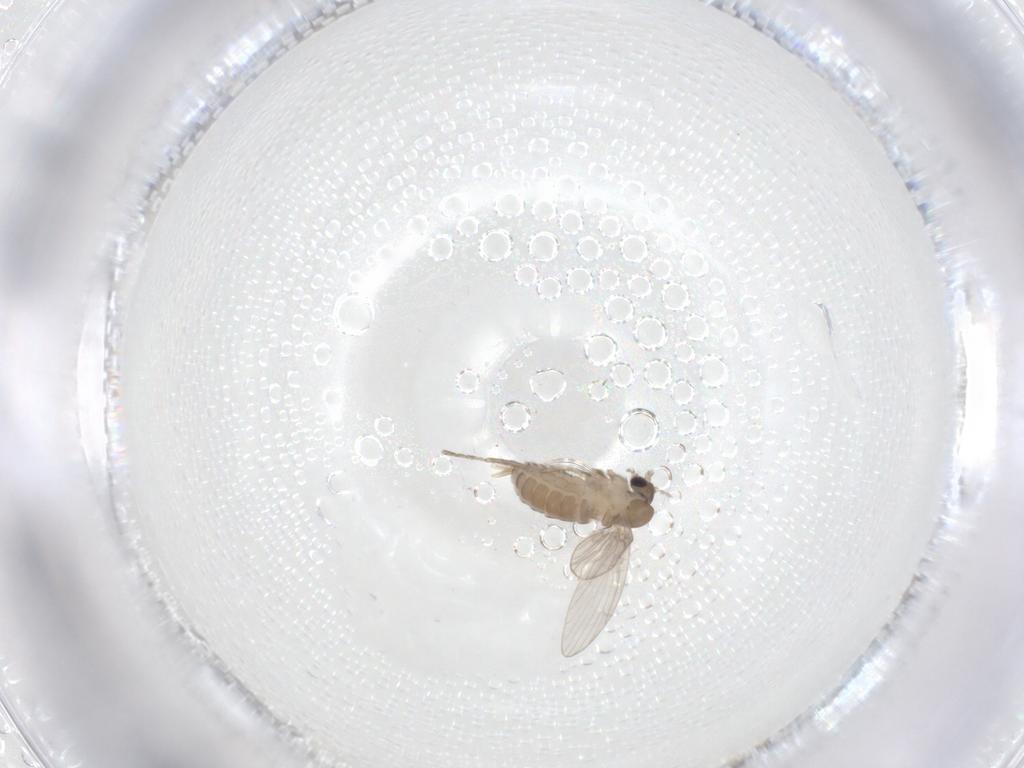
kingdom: Animalia
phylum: Arthropoda
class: Insecta
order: Diptera
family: Psychodidae
